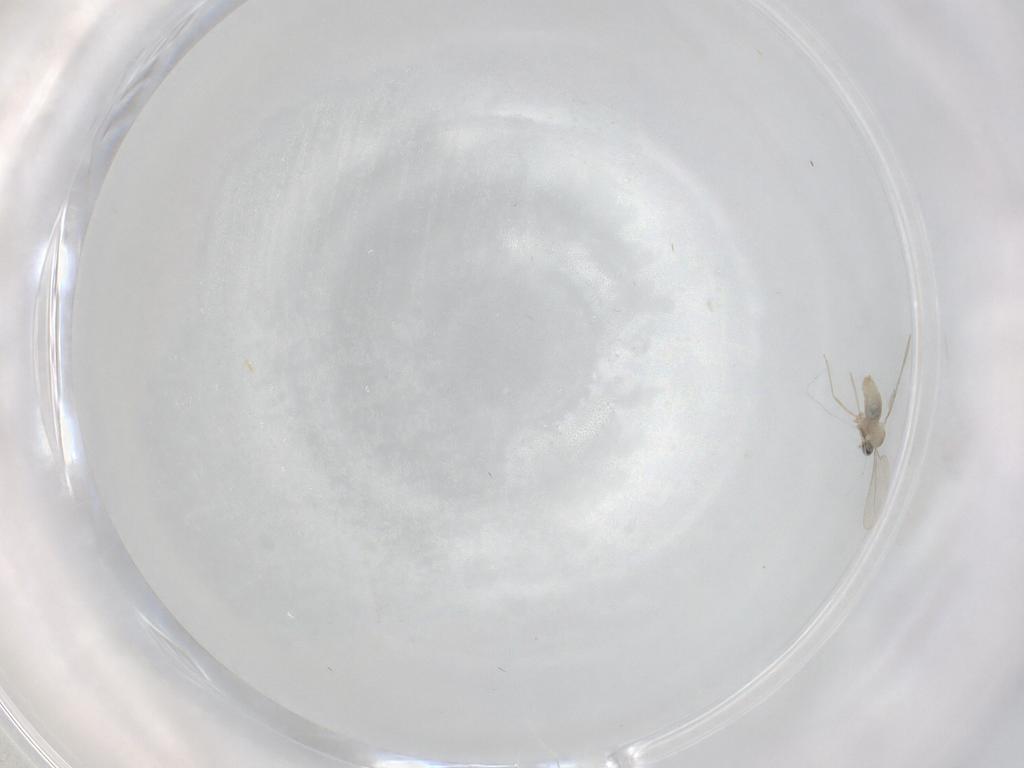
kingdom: Animalia
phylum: Arthropoda
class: Insecta
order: Diptera
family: Cecidomyiidae
